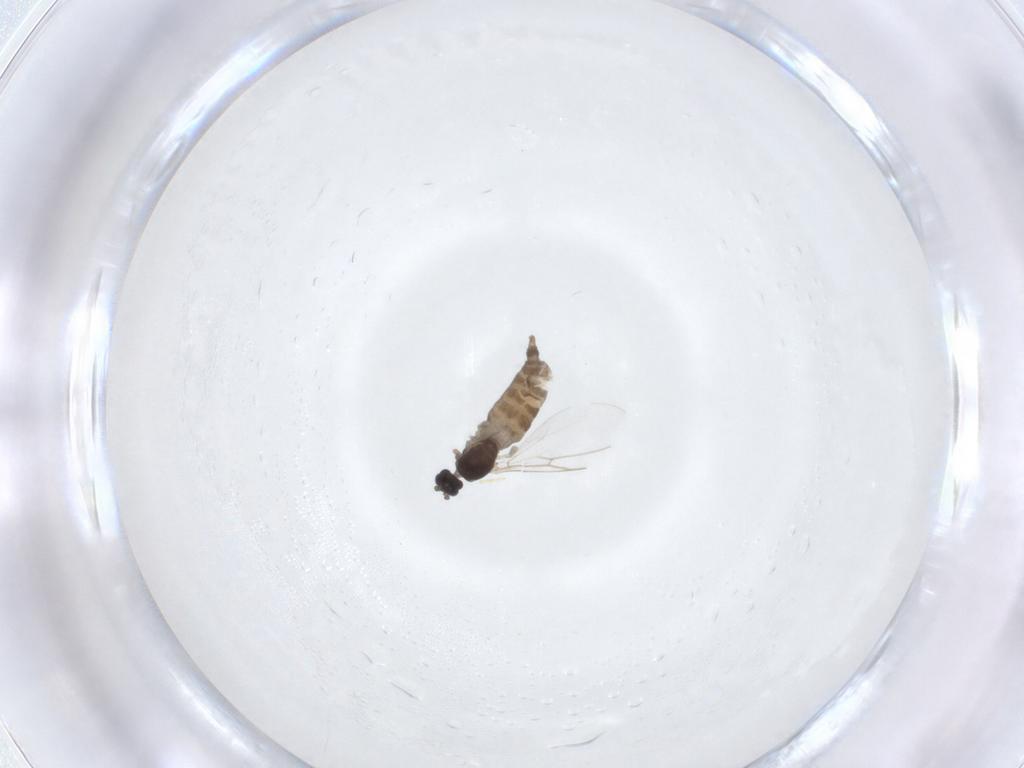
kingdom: Animalia
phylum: Arthropoda
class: Insecta
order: Diptera
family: Cecidomyiidae
